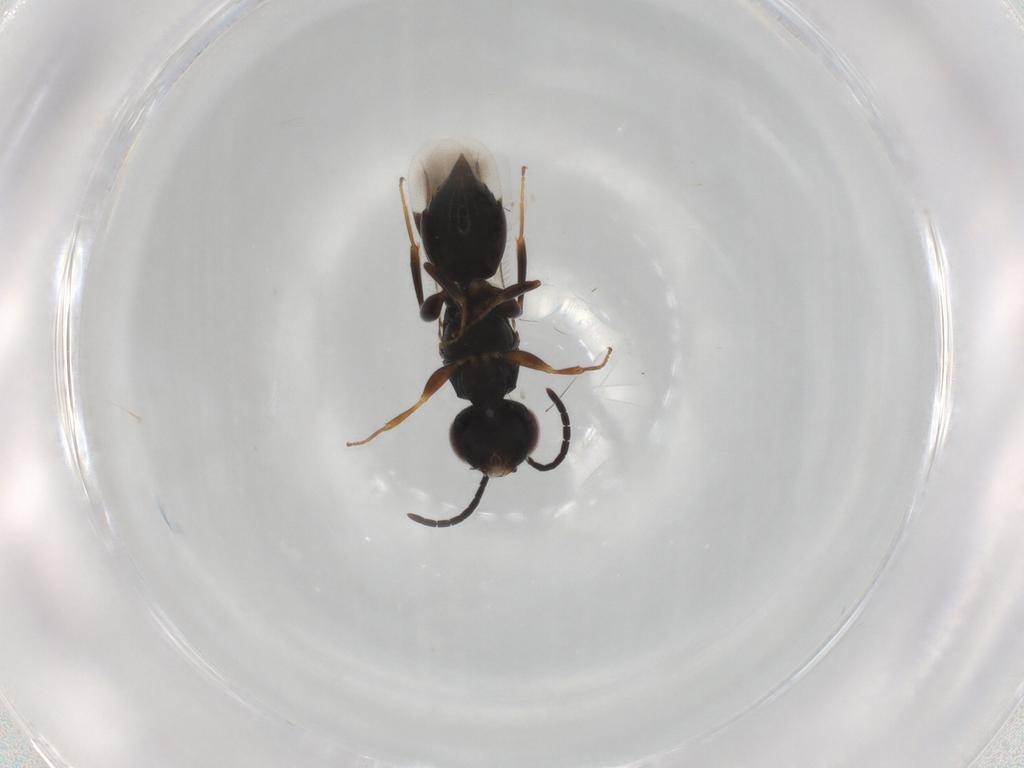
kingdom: Animalia
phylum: Arthropoda
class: Insecta
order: Hymenoptera
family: Megaspilidae
